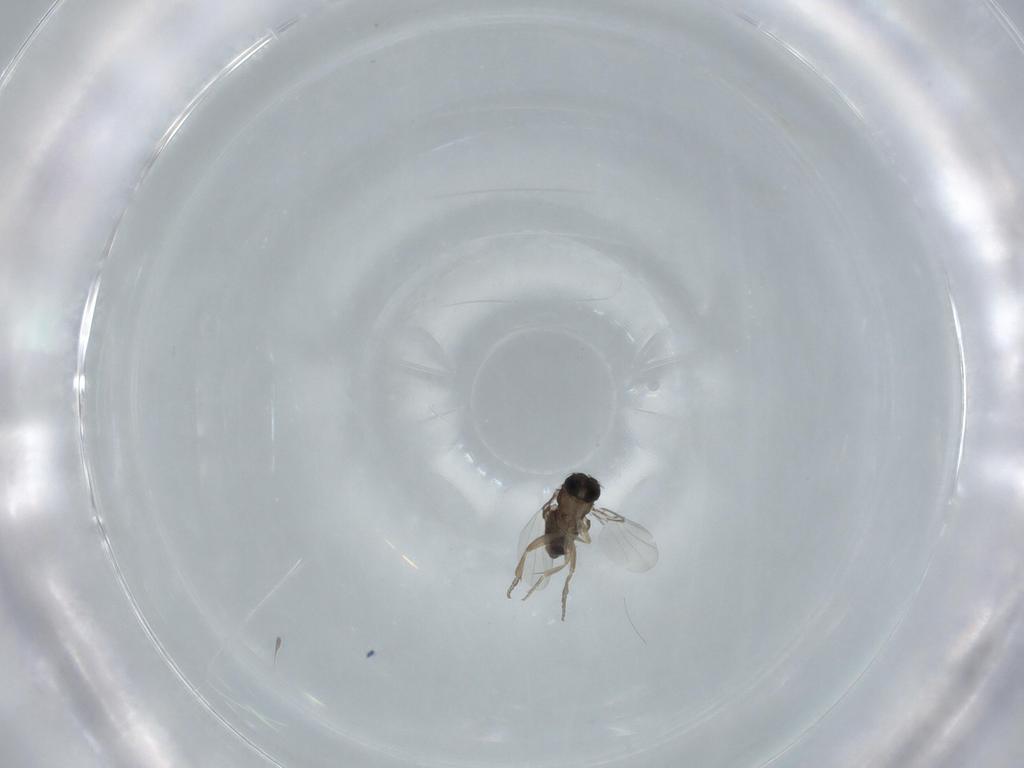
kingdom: Animalia
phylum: Arthropoda
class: Insecta
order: Diptera
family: Phoridae
